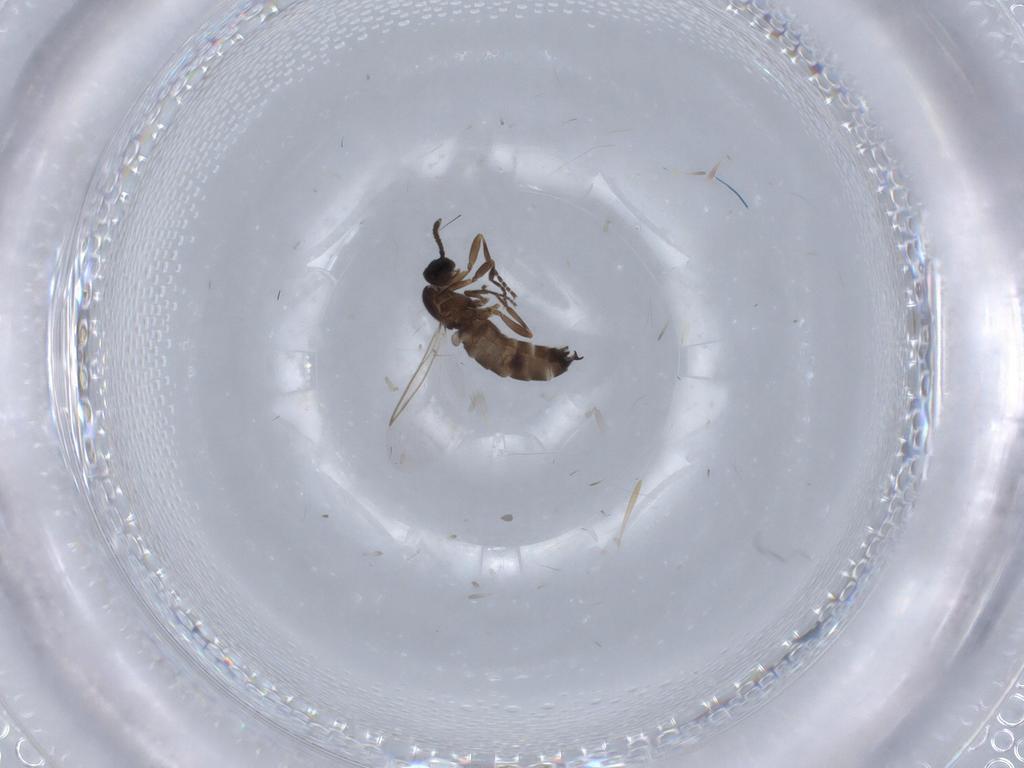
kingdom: Animalia
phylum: Arthropoda
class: Insecta
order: Diptera
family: Scatopsidae
